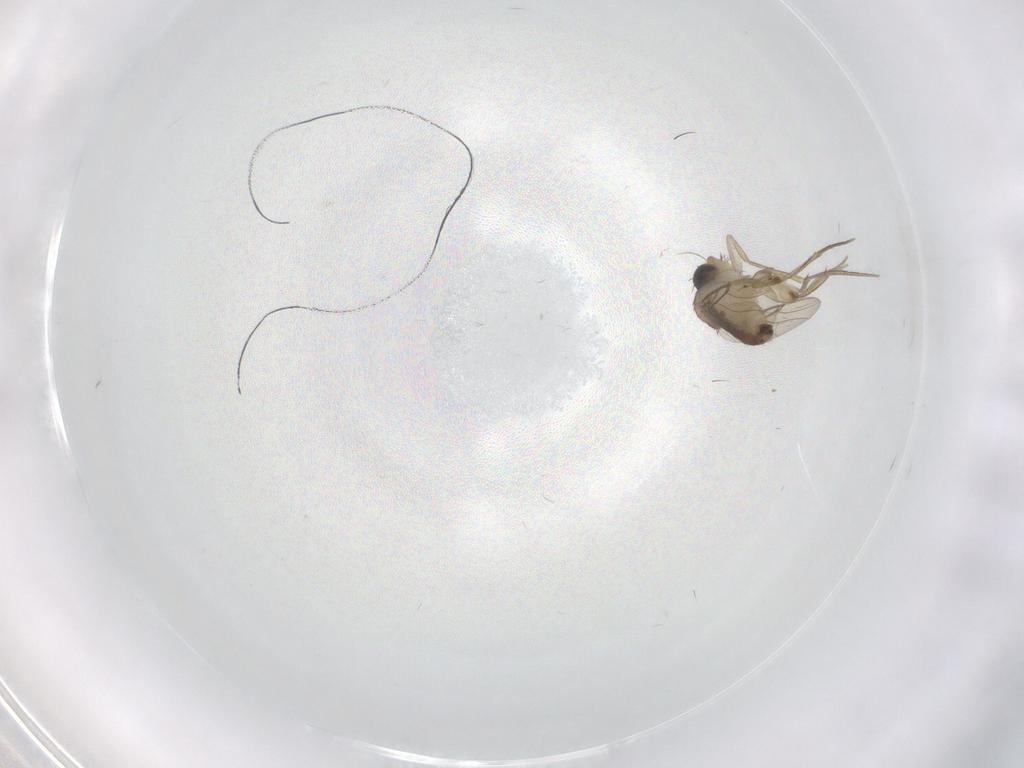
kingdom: Animalia
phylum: Arthropoda
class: Insecta
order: Diptera
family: Phoridae
